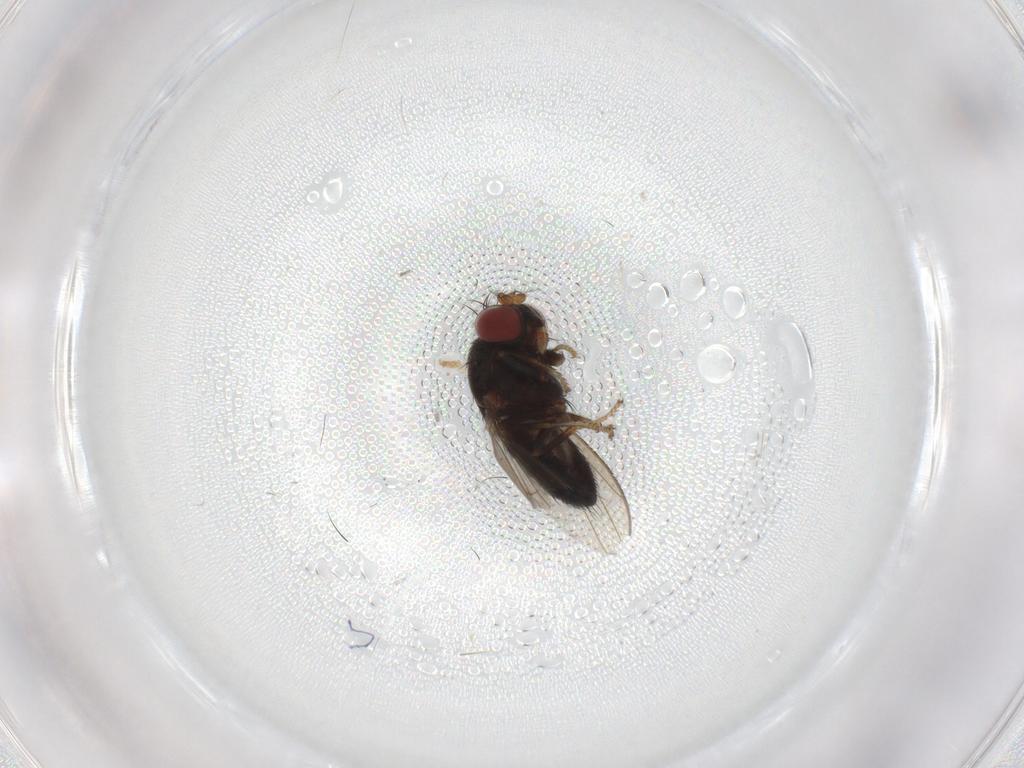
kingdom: Animalia
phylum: Arthropoda
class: Insecta
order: Diptera
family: Ephydridae
